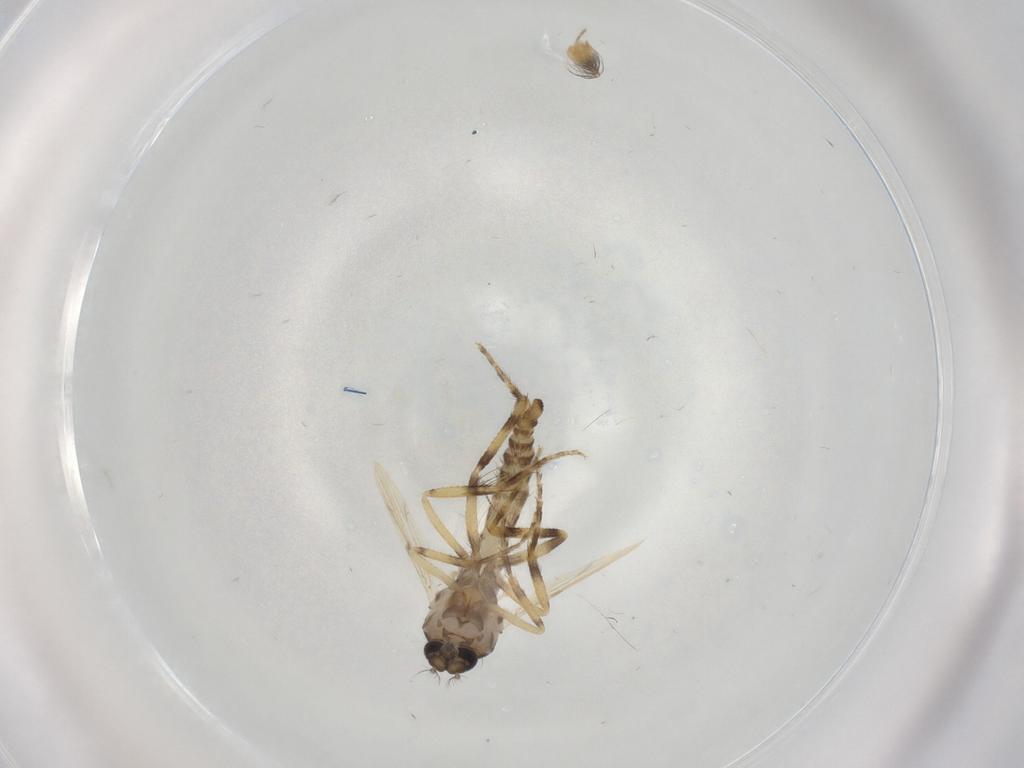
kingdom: Animalia
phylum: Arthropoda
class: Insecta
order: Diptera
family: Ceratopogonidae
